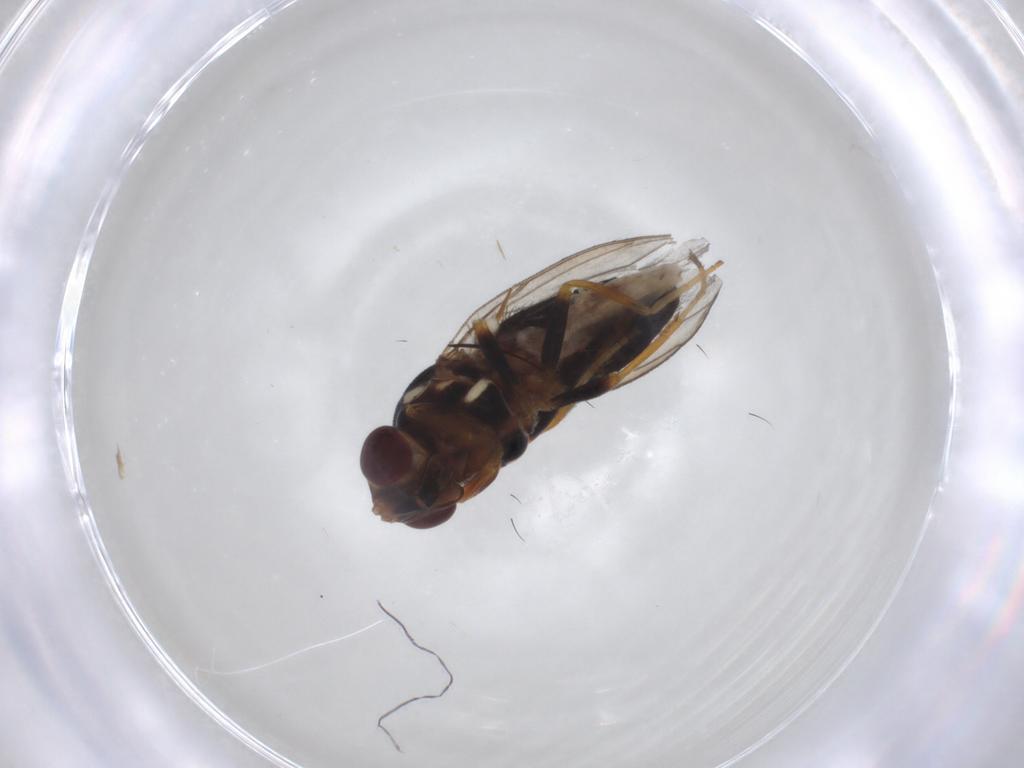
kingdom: Animalia
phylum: Arthropoda
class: Insecta
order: Diptera
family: Chloropidae
